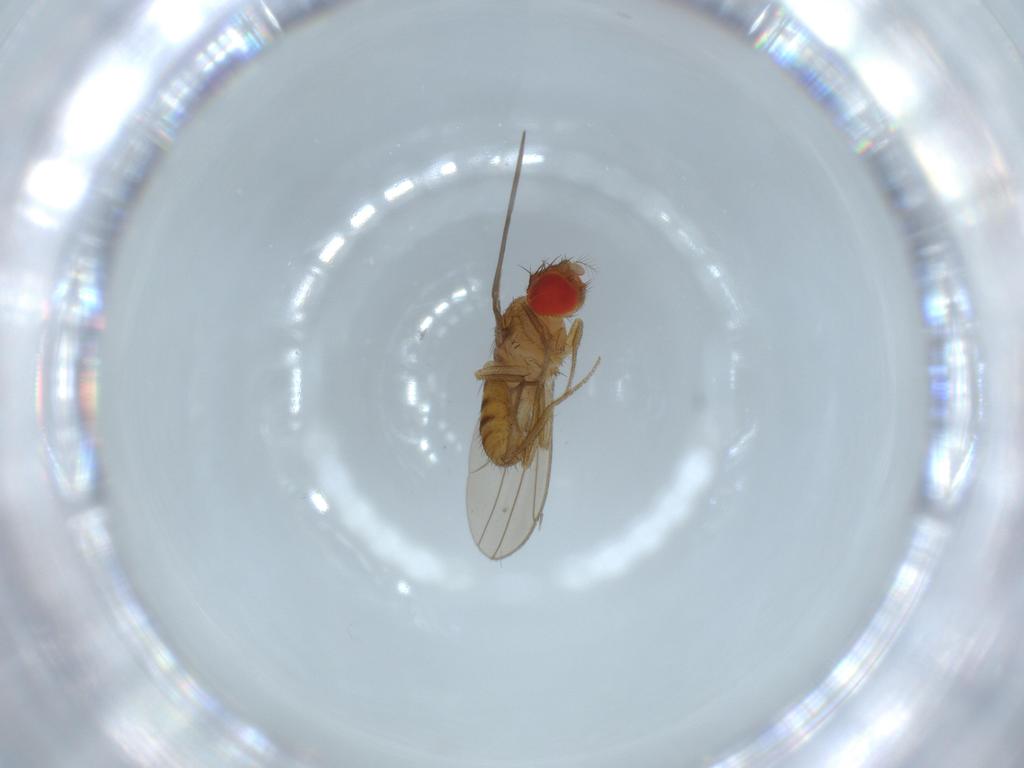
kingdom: Animalia
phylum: Arthropoda
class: Insecta
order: Diptera
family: Drosophilidae
